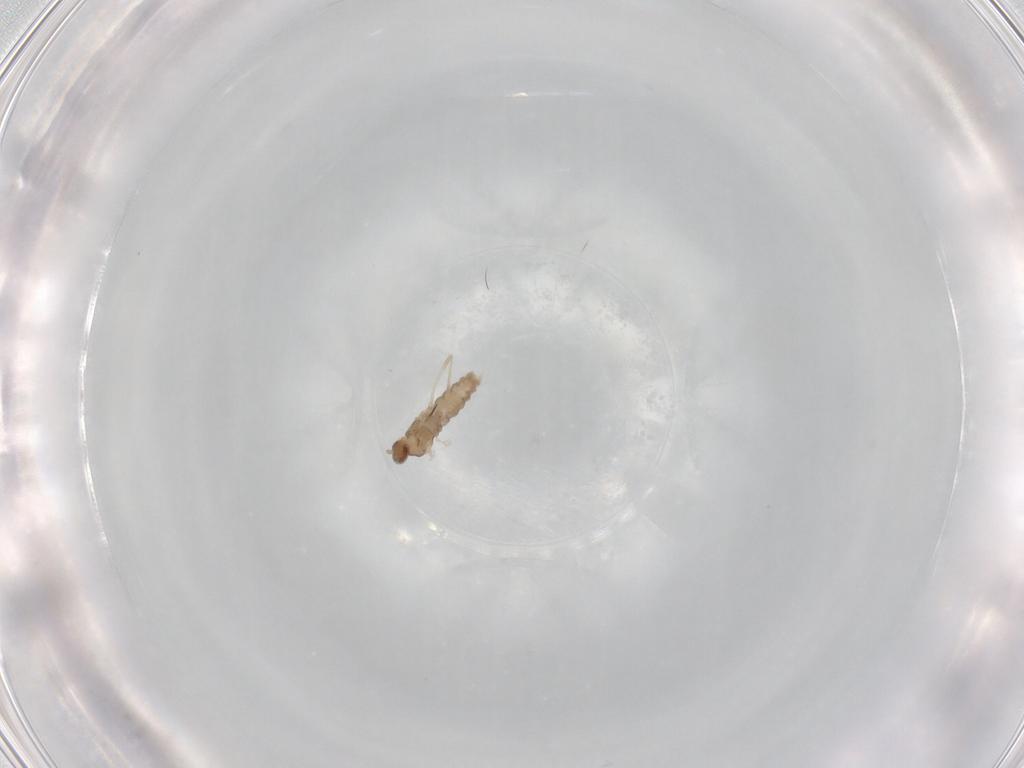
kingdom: Animalia
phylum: Arthropoda
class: Insecta
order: Diptera
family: Cecidomyiidae
